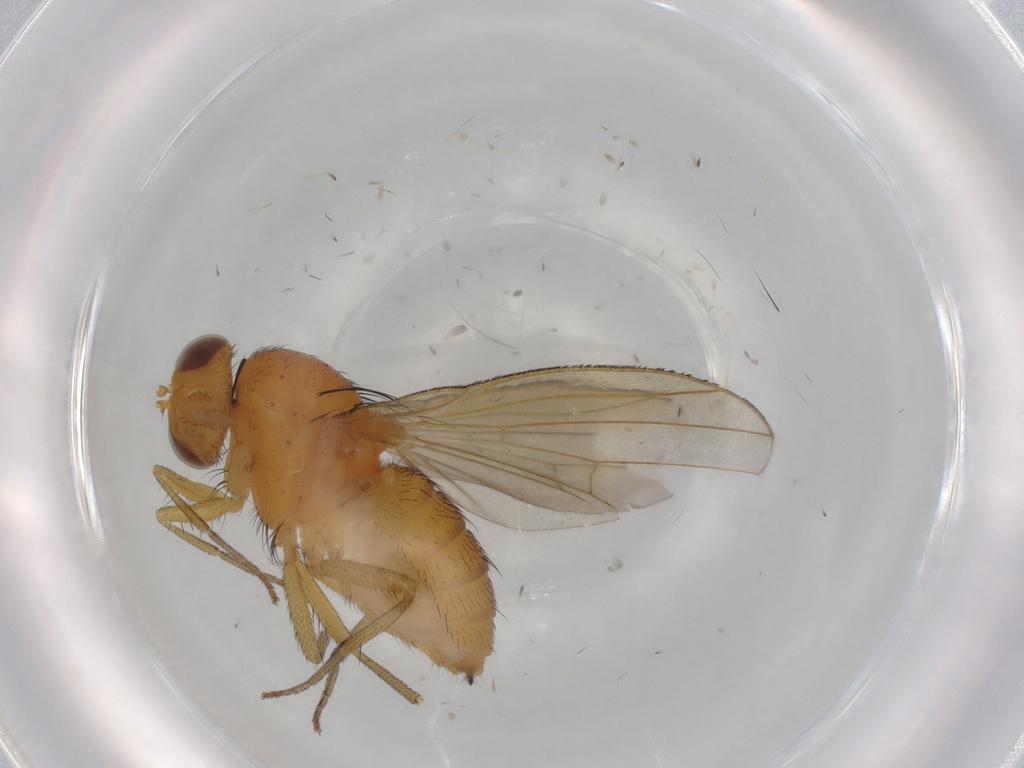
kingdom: Animalia
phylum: Arthropoda
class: Insecta
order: Diptera
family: Lauxaniidae
